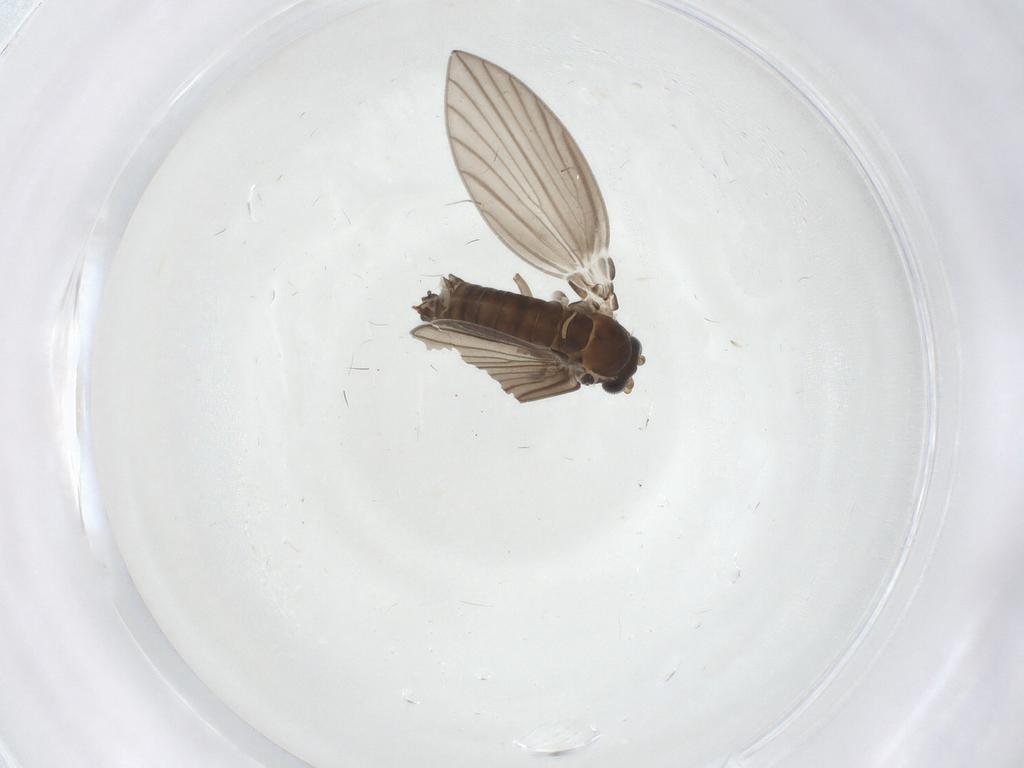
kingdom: Animalia
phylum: Arthropoda
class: Insecta
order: Diptera
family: Psychodidae
